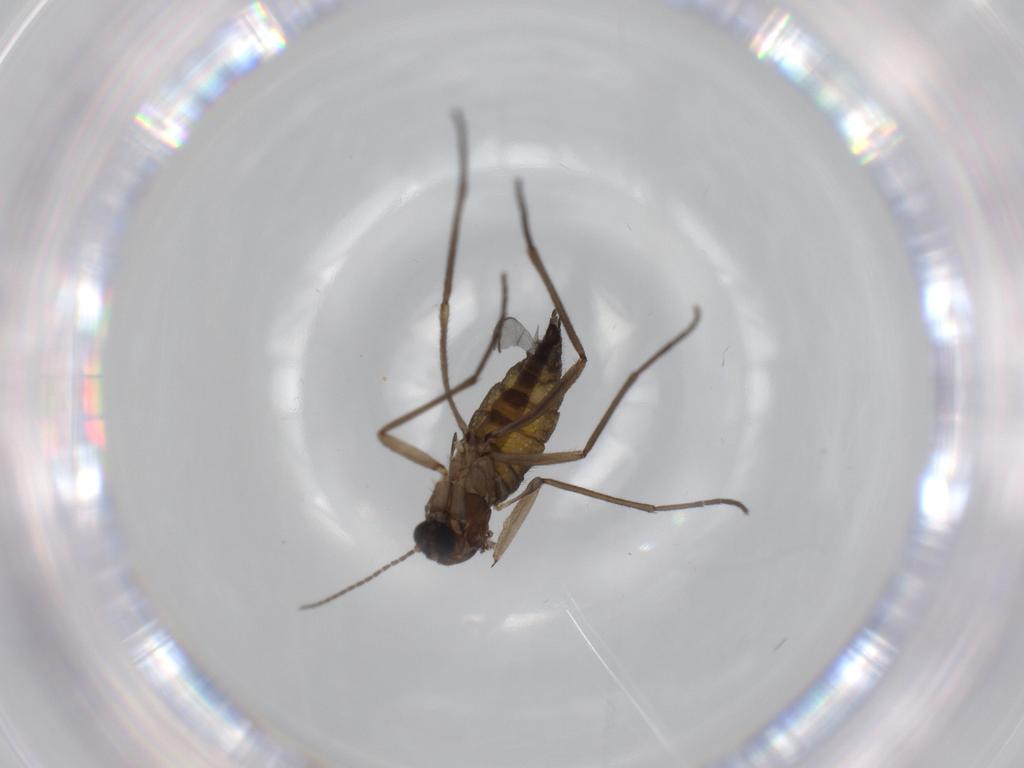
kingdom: Animalia
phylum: Arthropoda
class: Insecta
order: Diptera
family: Sciaridae
